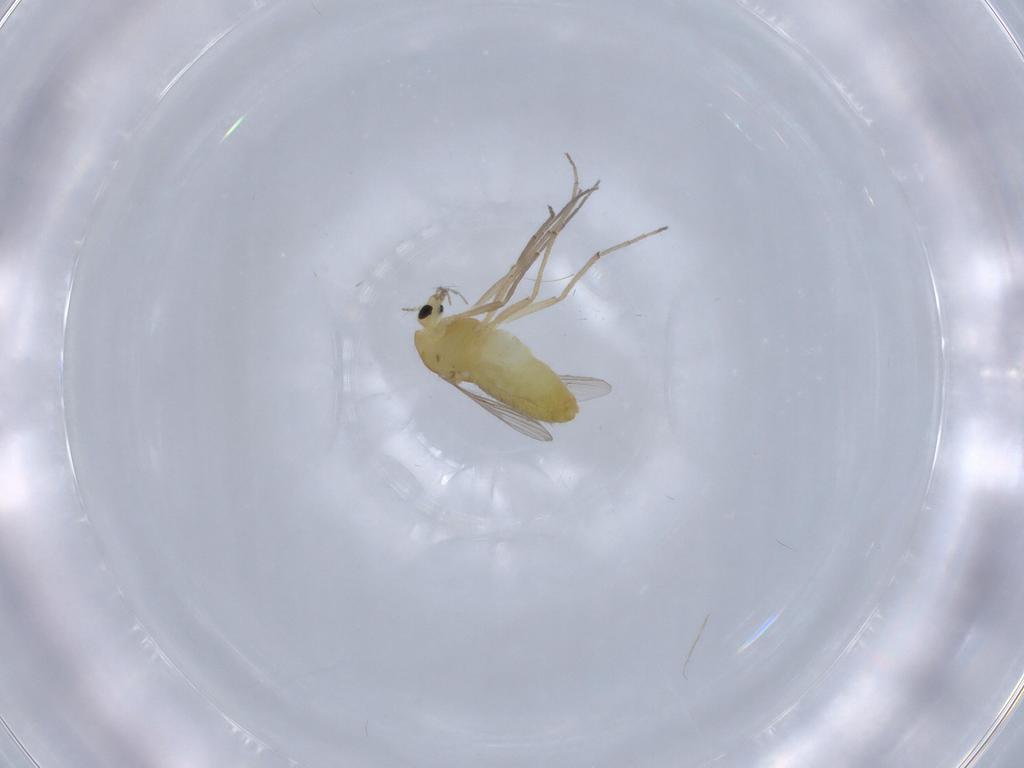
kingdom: Animalia
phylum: Arthropoda
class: Insecta
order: Diptera
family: Chironomidae
